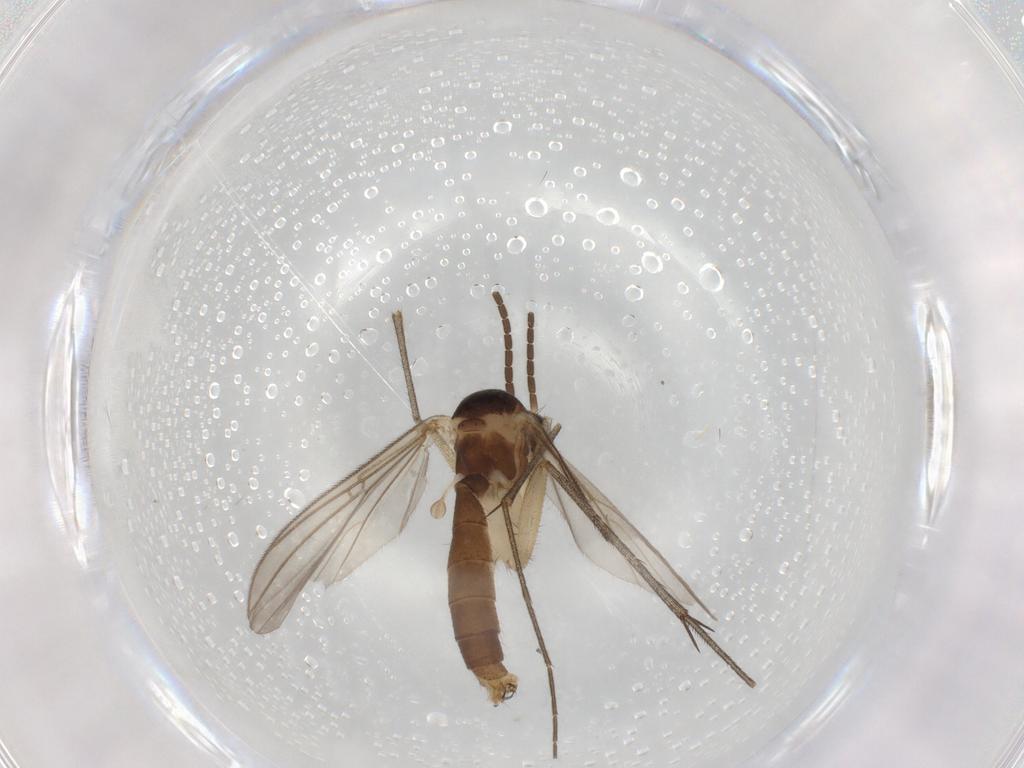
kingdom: Animalia
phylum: Arthropoda
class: Insecta
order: Diptera
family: Mycetophilidae
